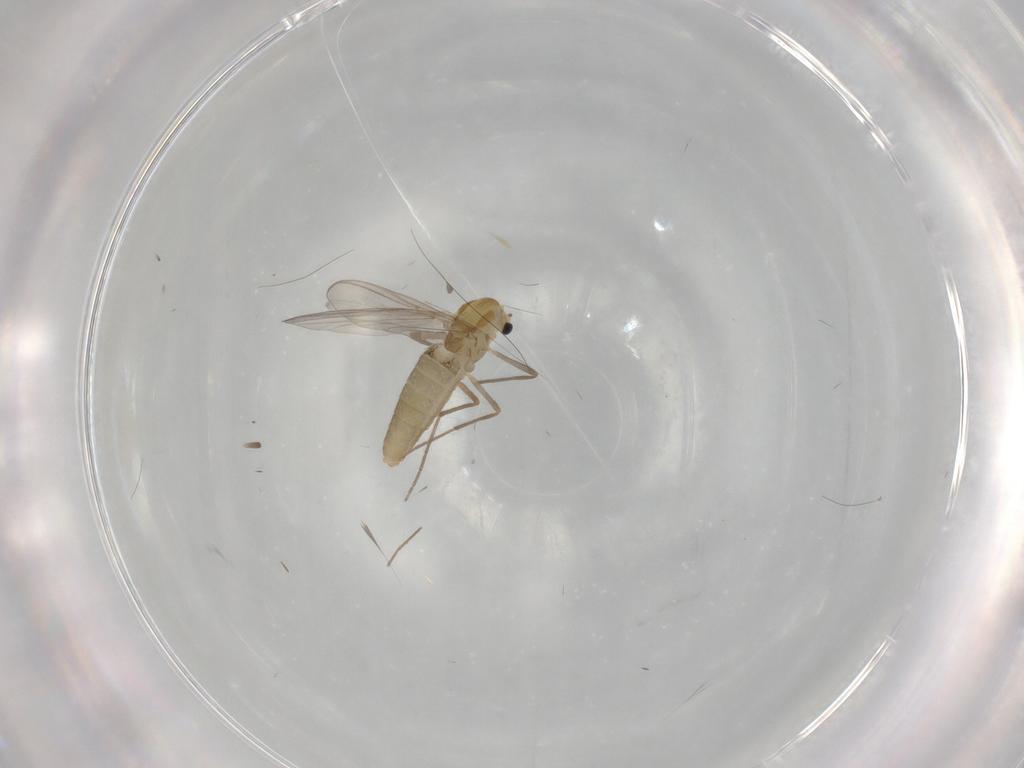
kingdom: Animalia
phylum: Arthropoda
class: Insecta
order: Diptera
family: Chironomidae
